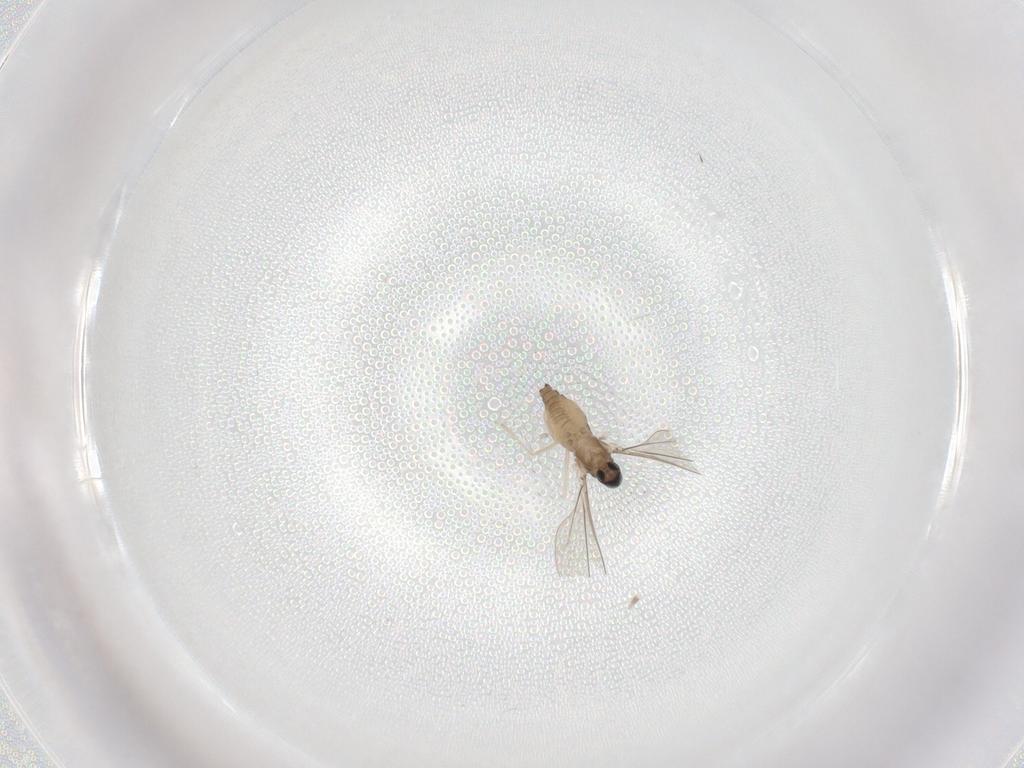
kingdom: Animalia
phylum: Arthropoda
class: Insecta
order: Diptera
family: Cecidomyiidae
